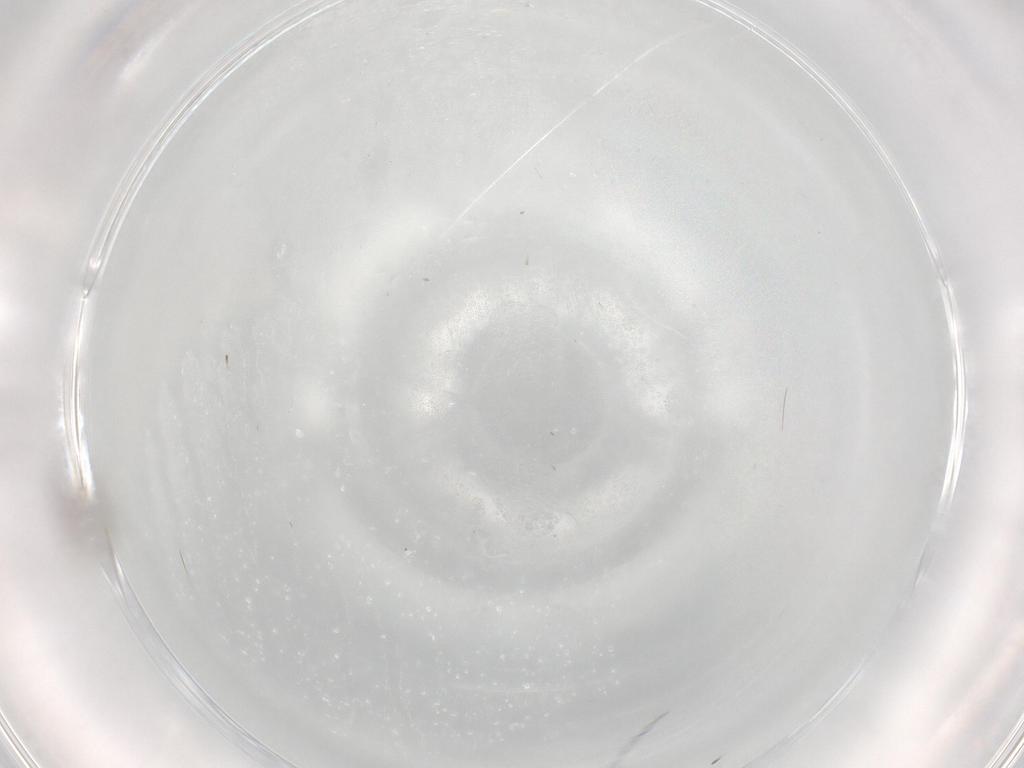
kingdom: Animalia
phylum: Arthropoda
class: Insecta
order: Diptera
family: Cecidomyiidae
